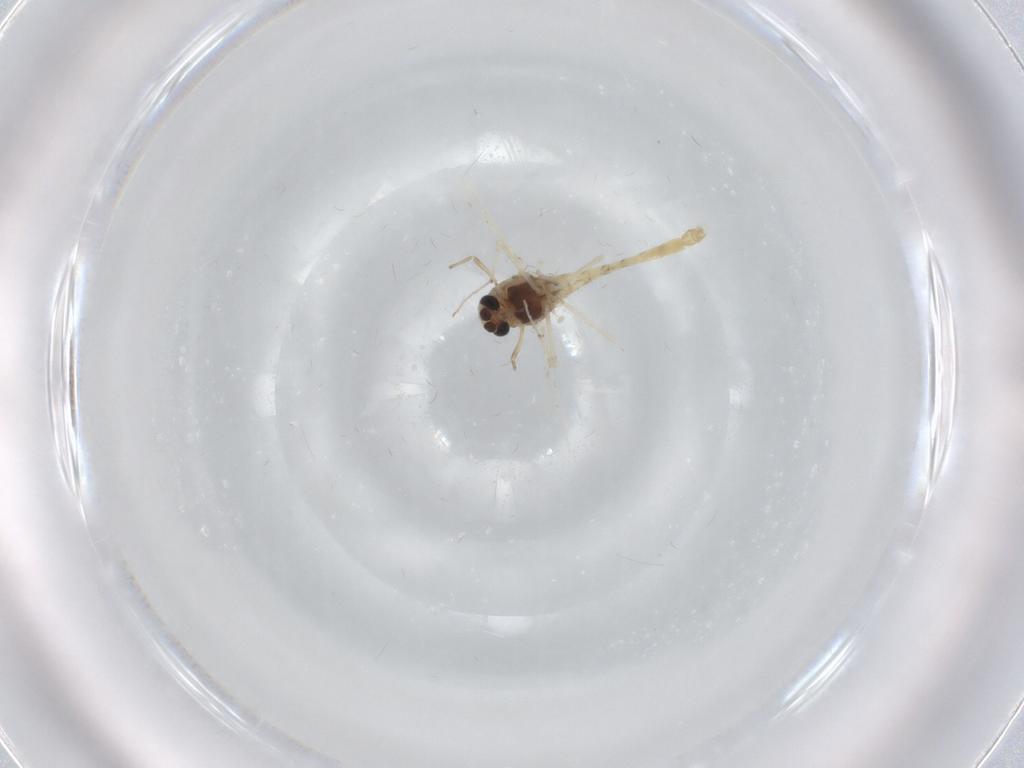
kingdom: Animalia
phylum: Arthropoda
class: Insecta
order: Diptera
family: Chironomidae
